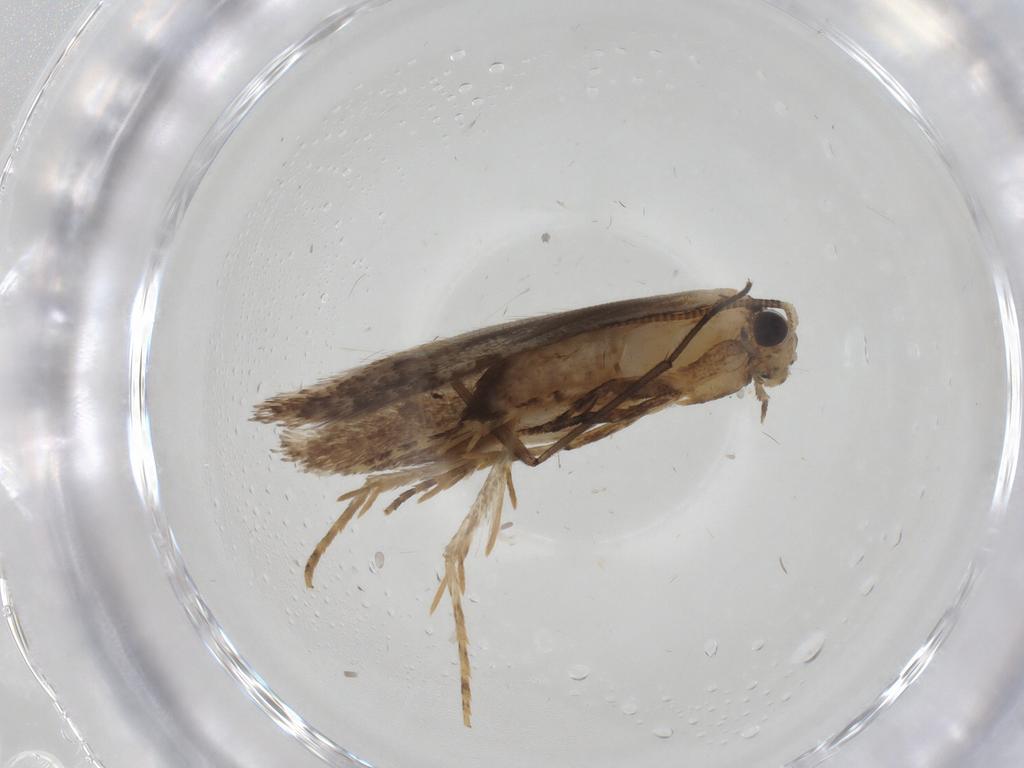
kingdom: Animalia
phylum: Arthropoda
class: Insecta
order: Lepidoptera
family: Tineidae
